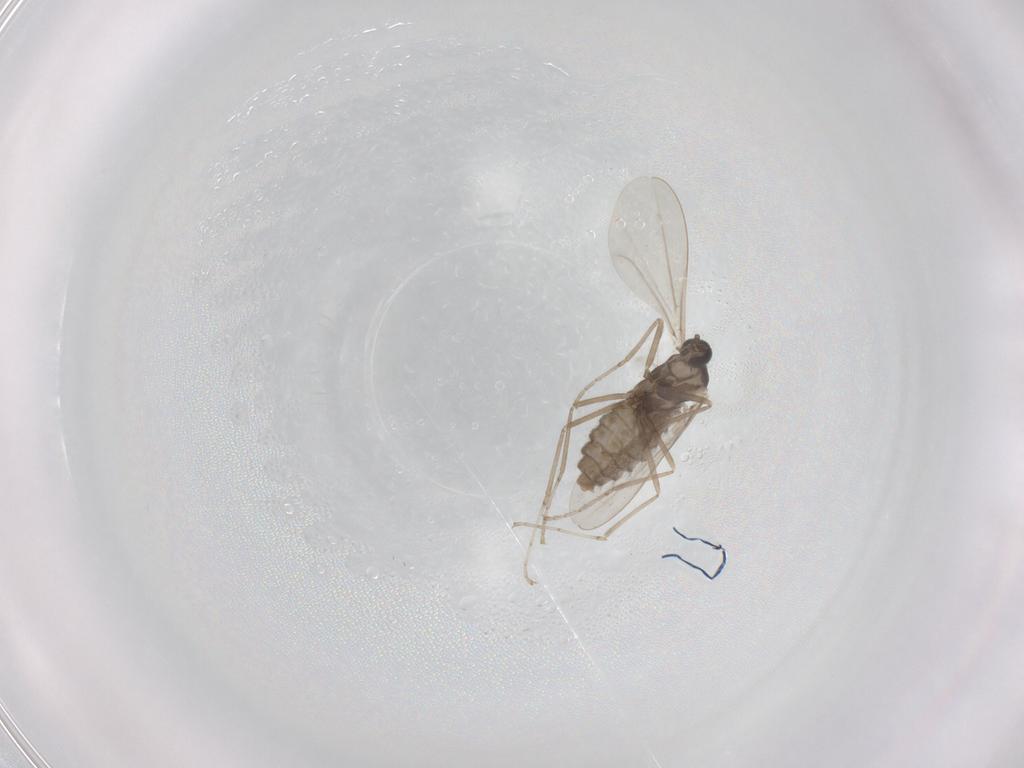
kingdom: Animalia
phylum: Arthropoda
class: Insecta
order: Diptera
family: Cecidomyiidae
